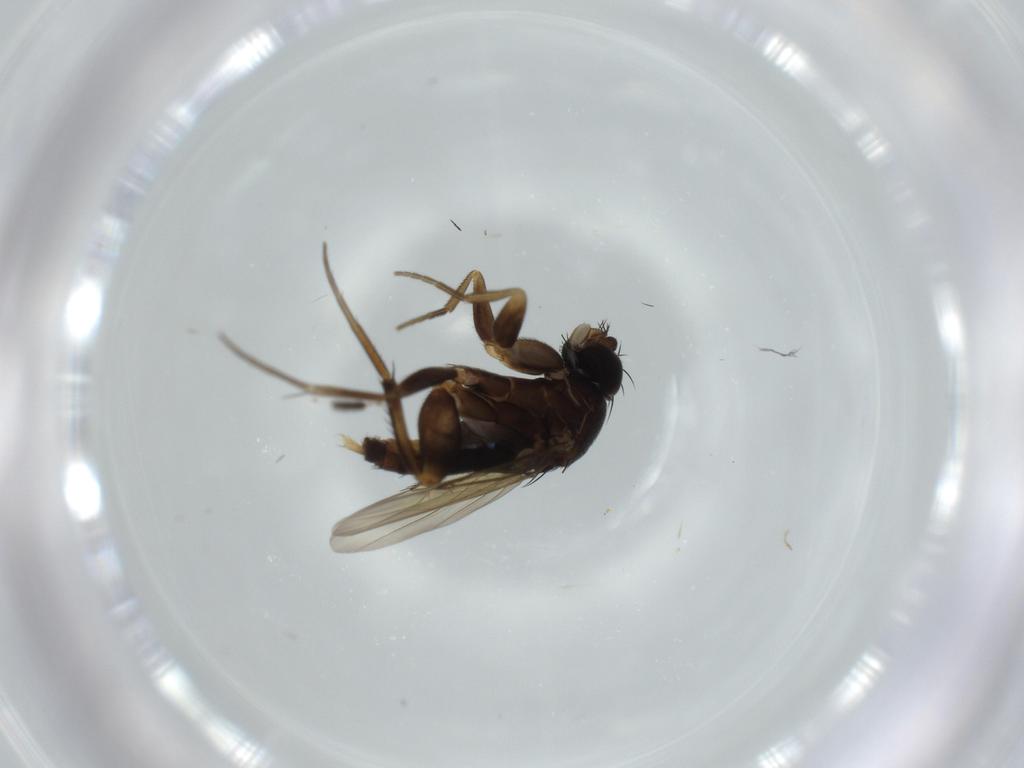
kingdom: Animalia
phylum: Arthropoda
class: Insecta
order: Diptera
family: Phoridae
